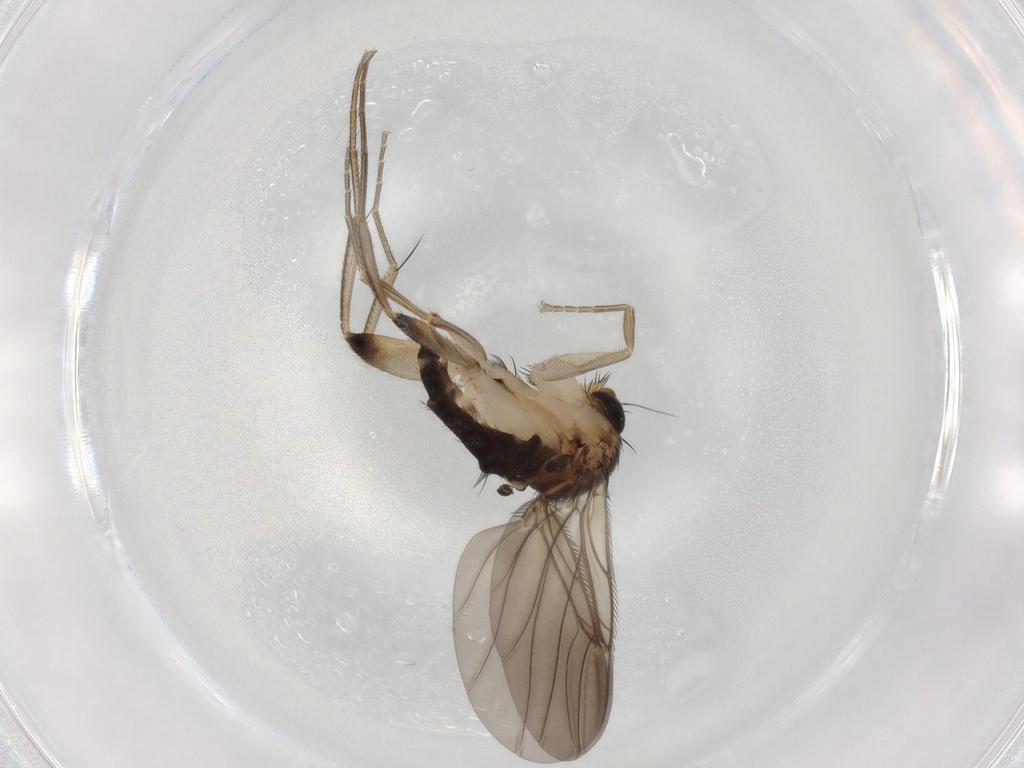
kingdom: Animalia
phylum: Arthropoda
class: Insecta
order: Diptera
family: Phoridae
